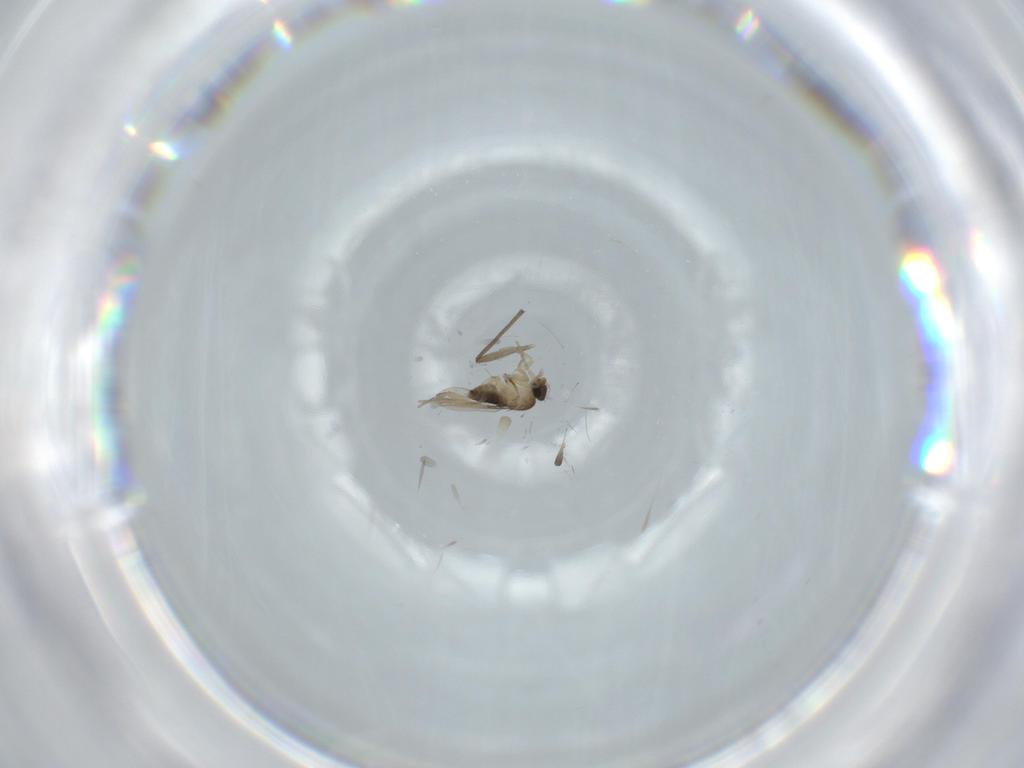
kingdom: Animalia
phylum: Arthropoda
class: Insecta
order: Diptera
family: Phoridae
